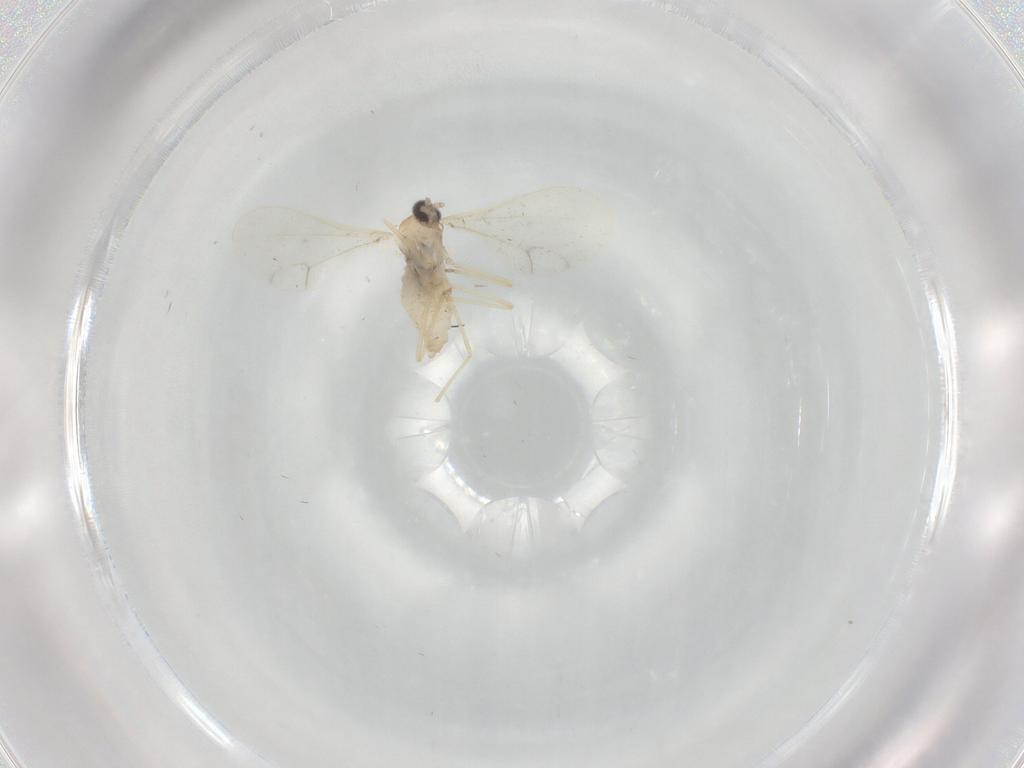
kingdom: Animalia
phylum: Arthropoda
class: Insecta
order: Diptera
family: Cecidomyiidae
